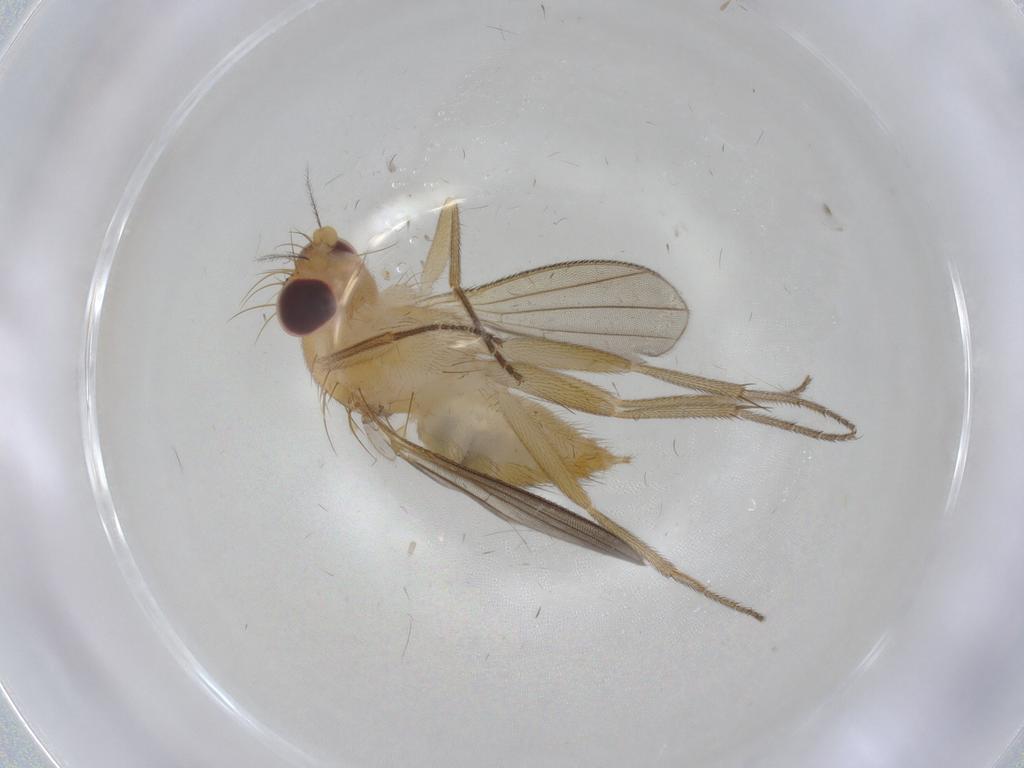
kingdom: Animalia
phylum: Arthropoda
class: Insecta
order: Diptera
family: Clusiidae
